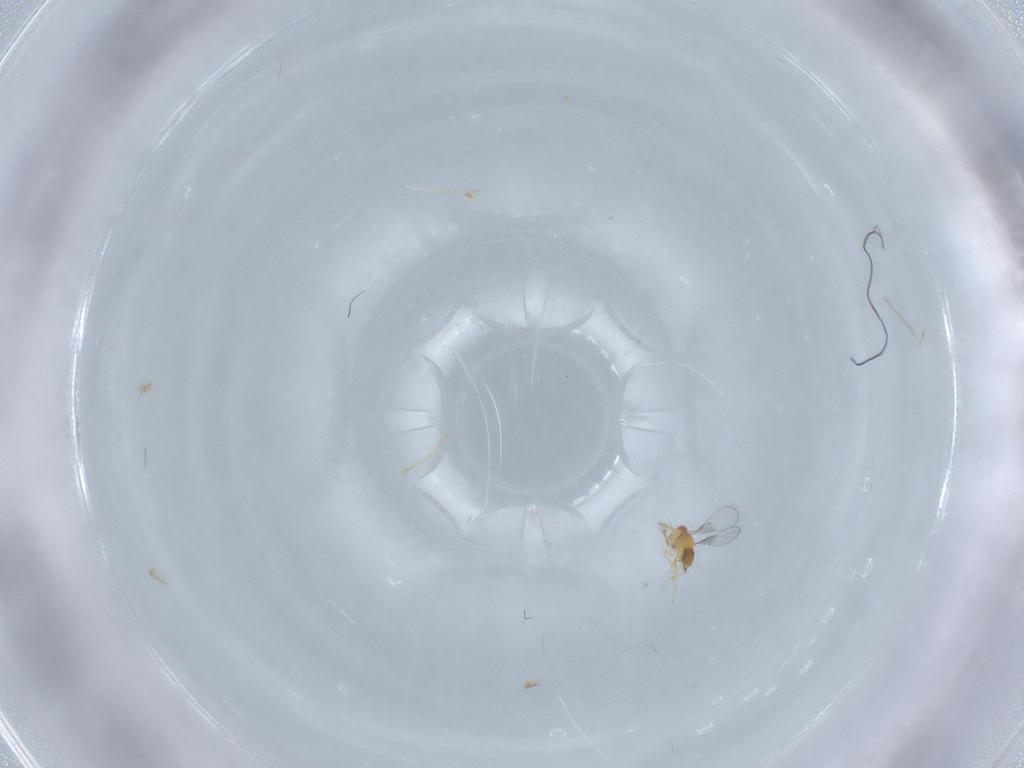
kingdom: Animalia
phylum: Arthropoda
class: Insecta
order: Hymenoptera
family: Trichogrammatidae
